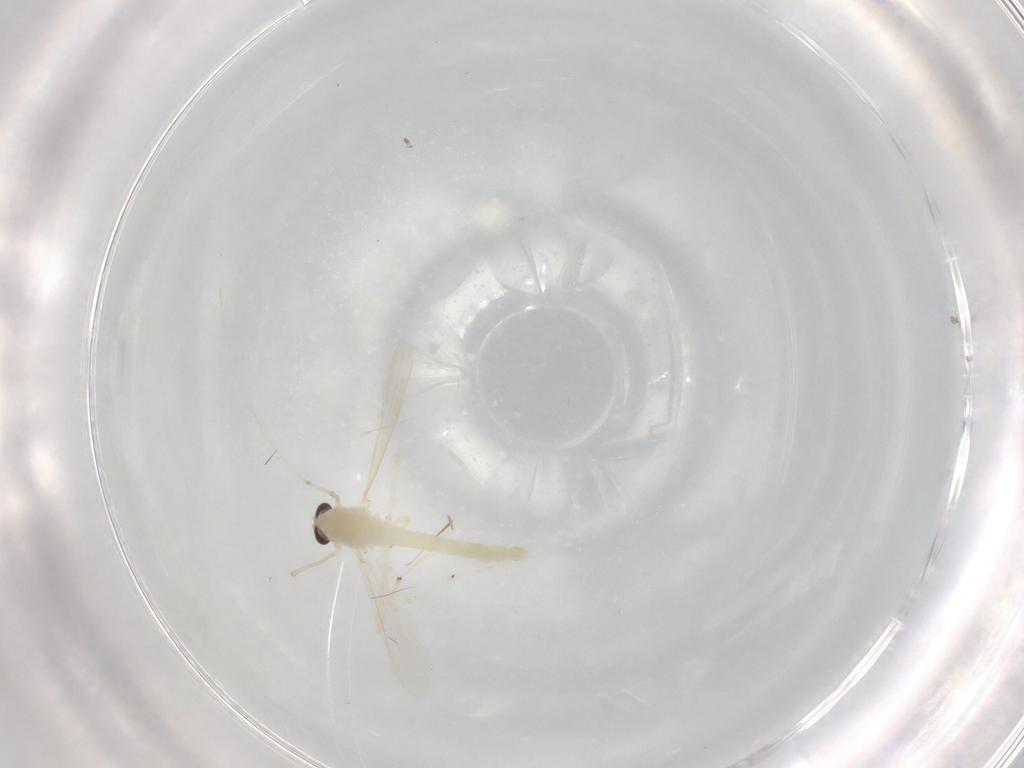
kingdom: Animalia
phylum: Arthropoda
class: Insecta
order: Diptera
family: Chironomidae
